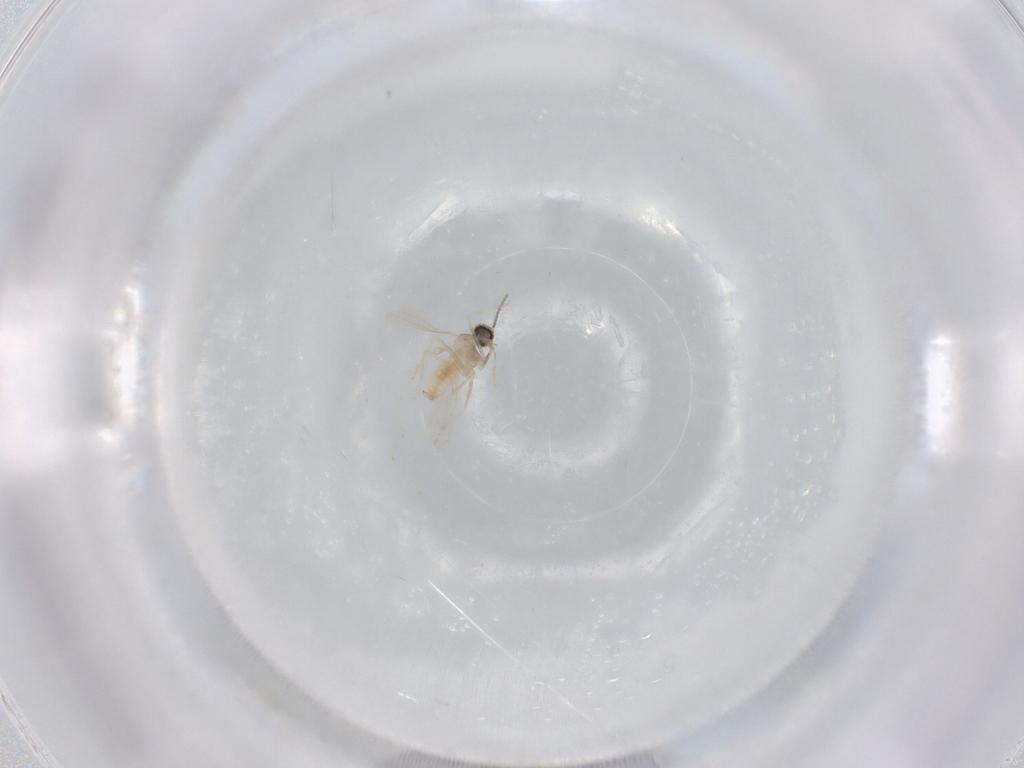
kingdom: Animalia
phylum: Arthropoda
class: Insecta
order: Diptera
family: Cecidomyiidae
